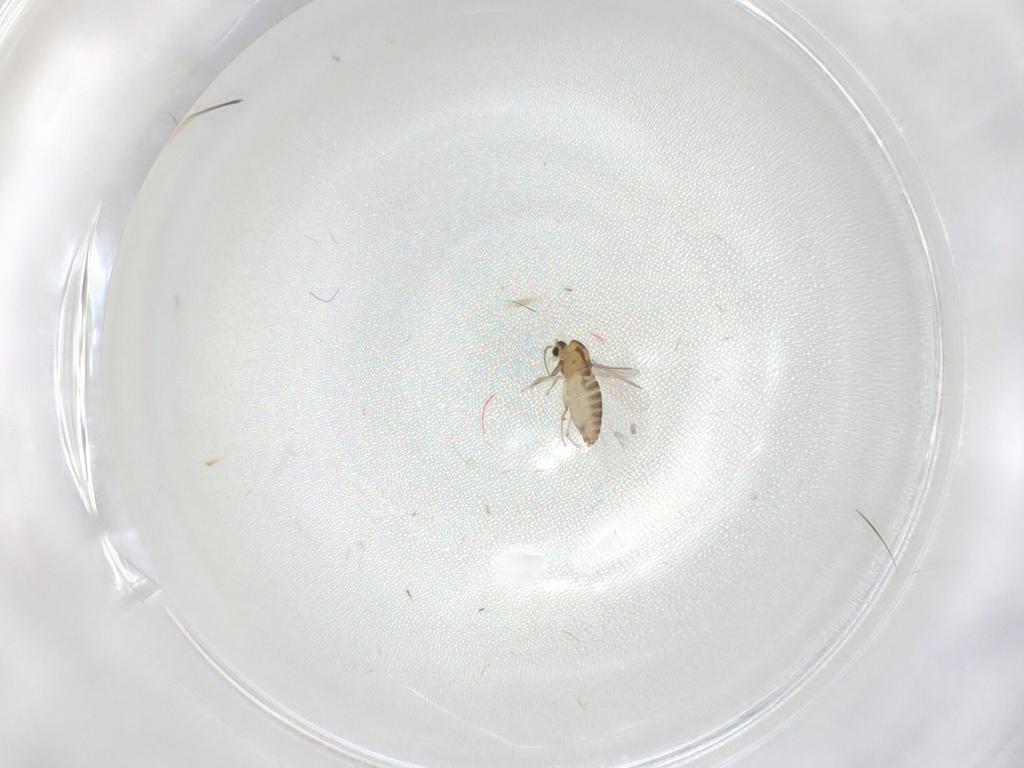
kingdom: Animalia
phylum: Arthropoda
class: Insecta
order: Diptera
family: Chironomidae
